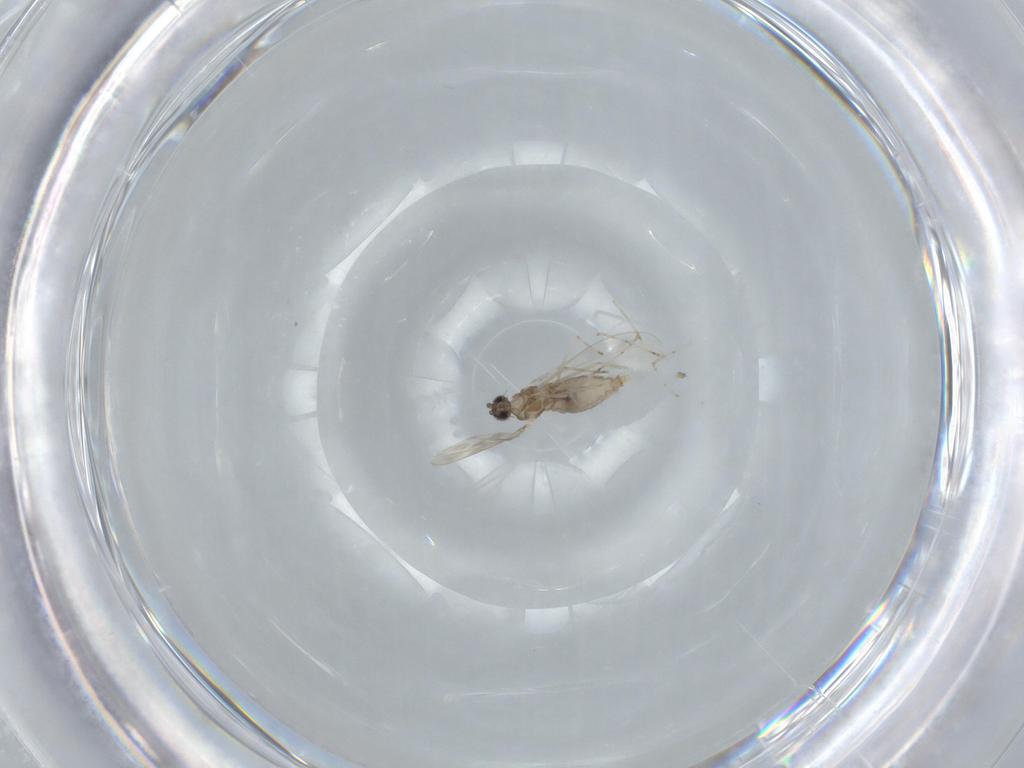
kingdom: Animalia
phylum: Arthropoda
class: Insecta
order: Diptera
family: Cecidomyiidae
